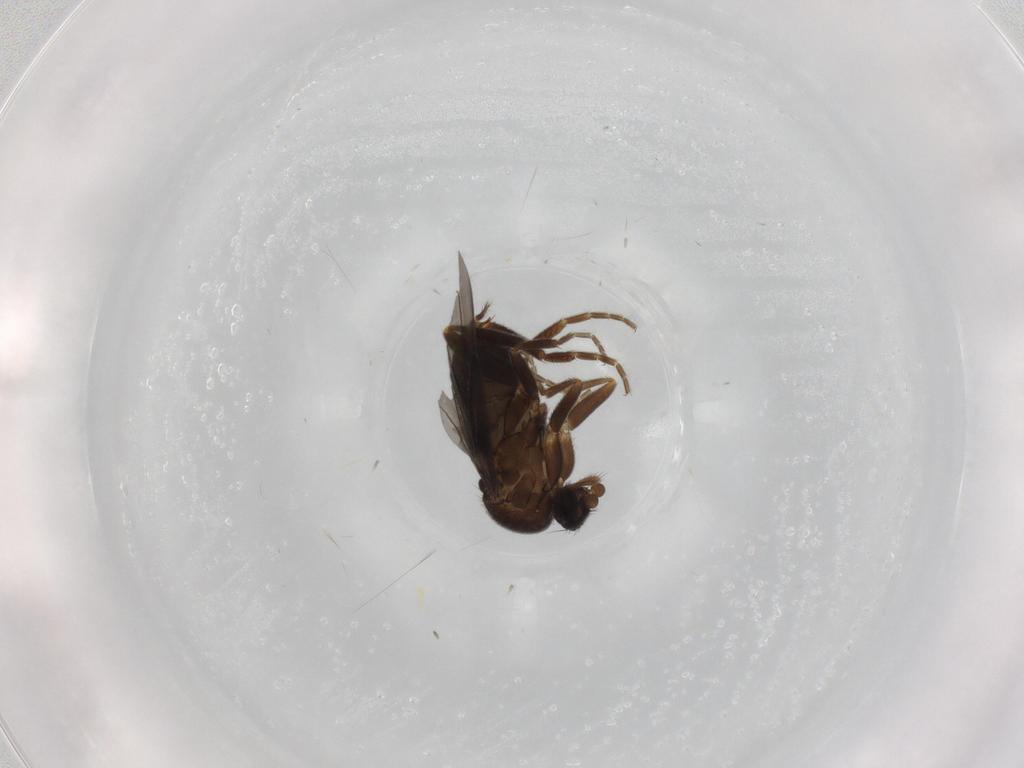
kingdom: Animalia
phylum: Arthropoda
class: Insecta
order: Diptera
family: Phoridae
